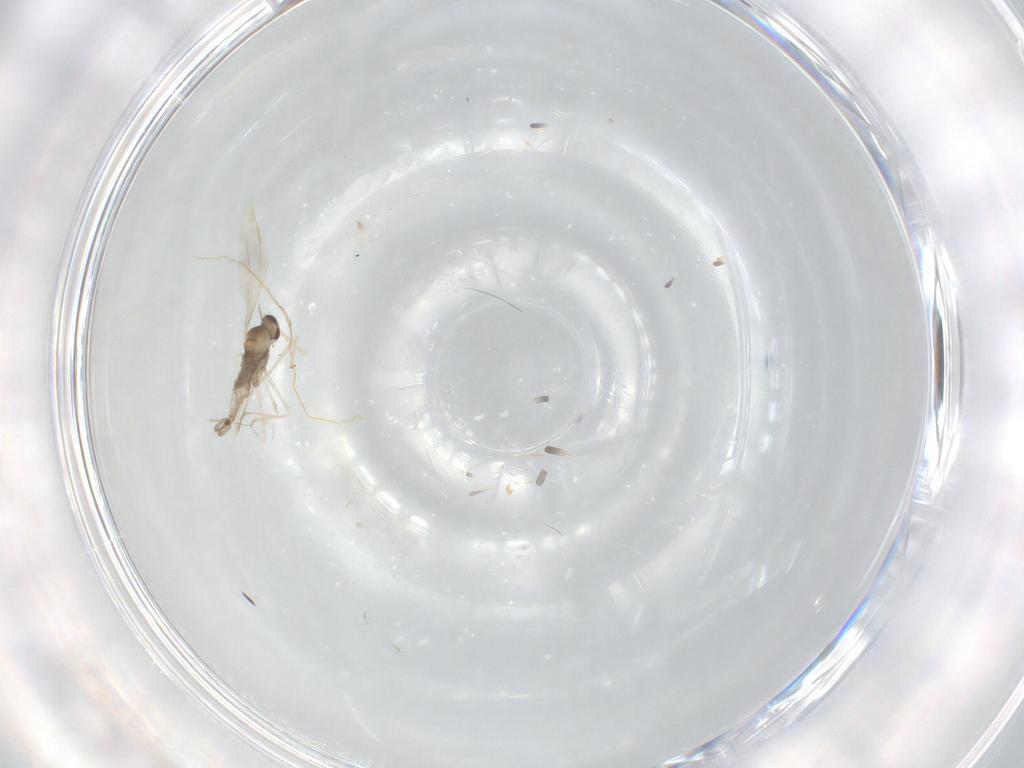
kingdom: Animalia
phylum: Arthropoda
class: Insecta
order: Diptera
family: Cecidomyiidae
